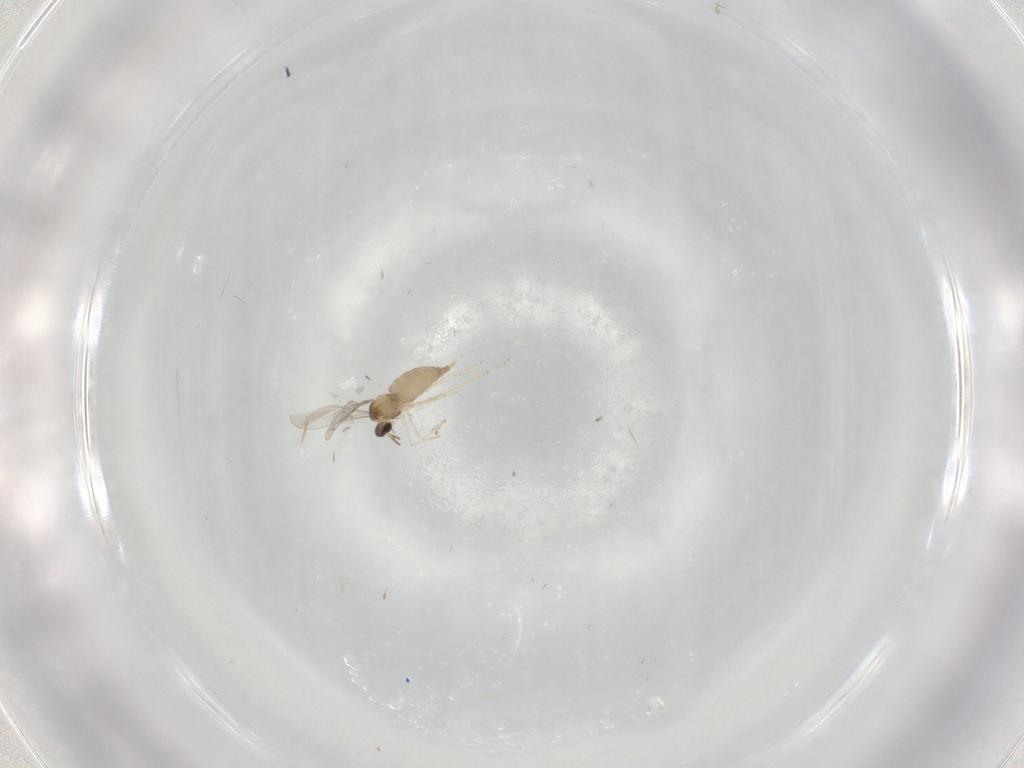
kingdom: Animalia
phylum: Arthropoda
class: Insecta
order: Diptera
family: Cecidomyiidae
